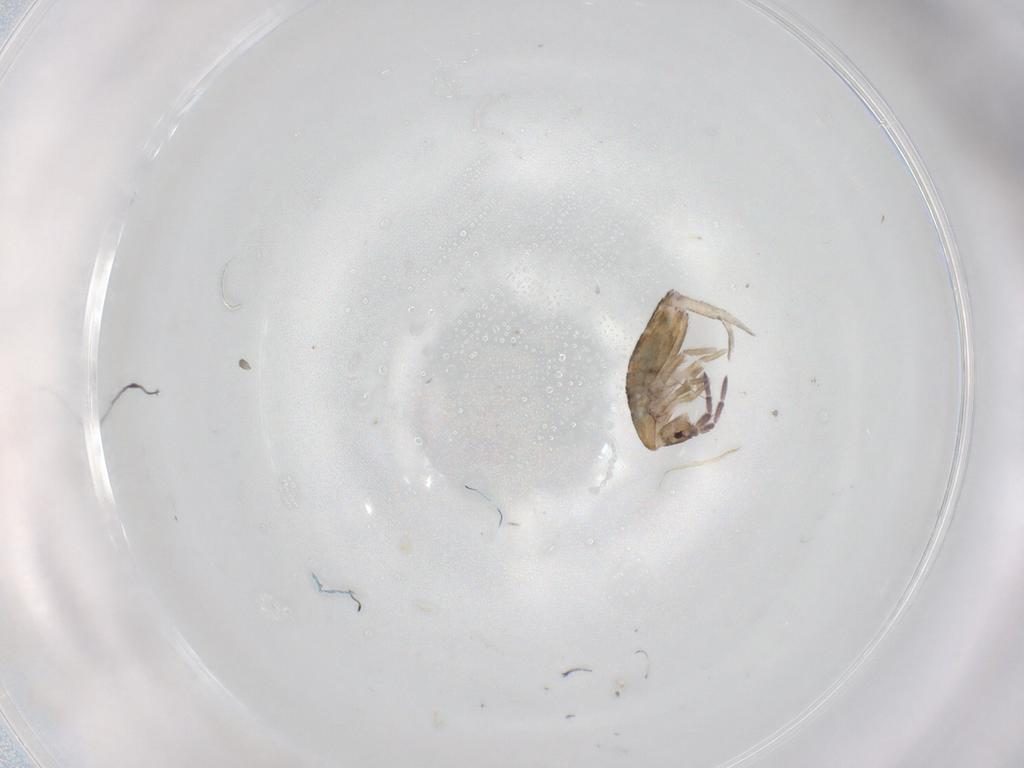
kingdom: Animalia
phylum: Arthropoda
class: Collembola
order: Entomobryomorpha
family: Entomobryidae
